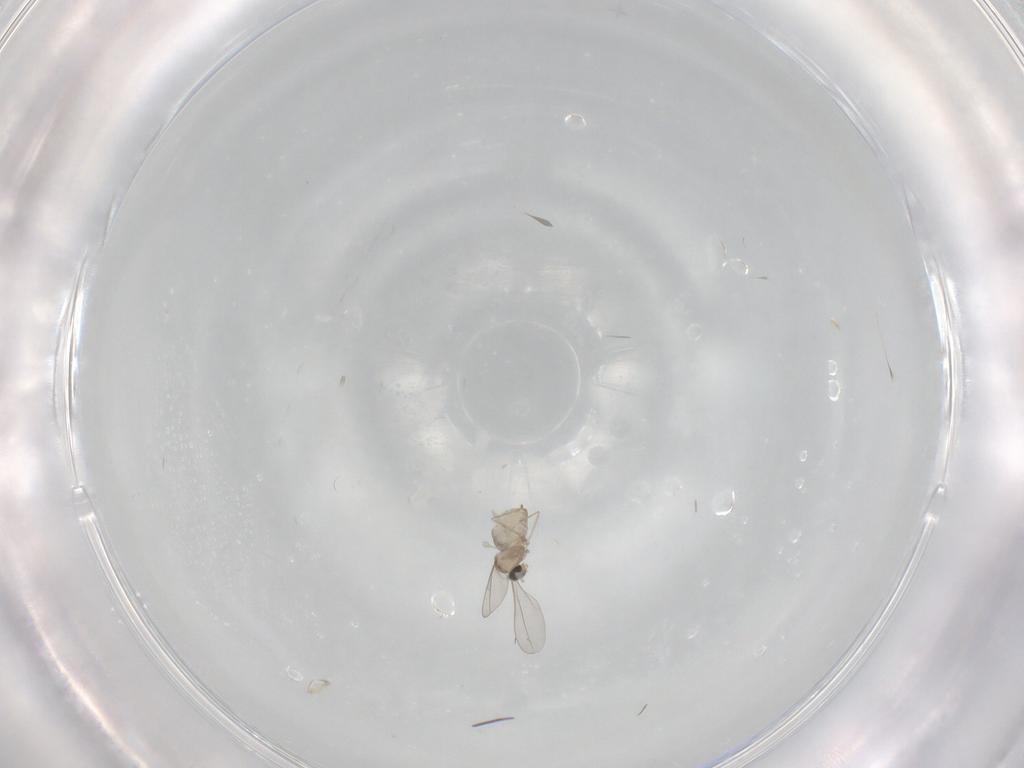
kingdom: Animalia
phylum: Arthropoda
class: Insecta
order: Diptera
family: Cecidomyiidae
